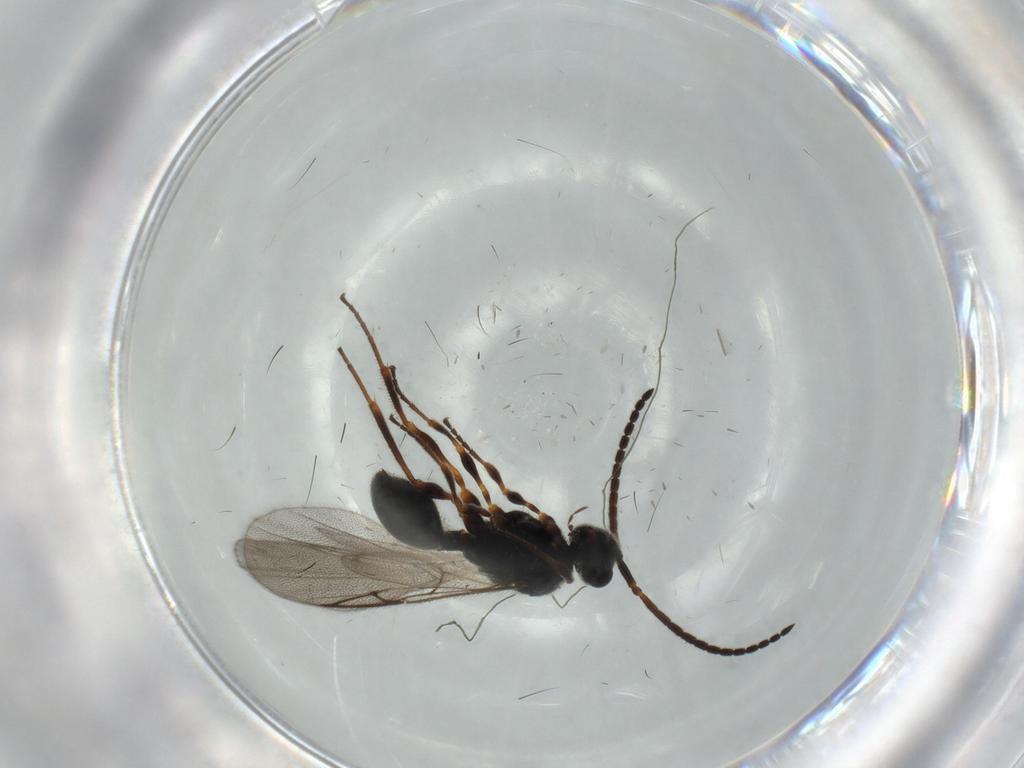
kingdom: Animalia
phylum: Arthropoda
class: Insecta
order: Hymenoptera
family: Diapriidae
